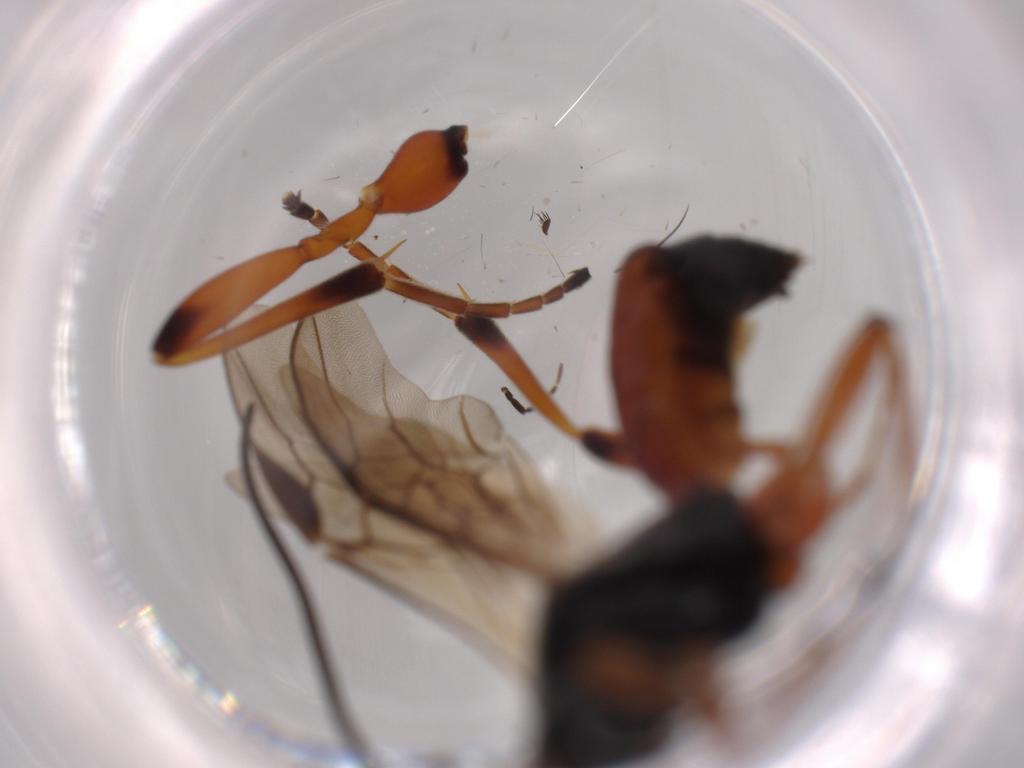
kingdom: Animalia
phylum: Arthropoda
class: Insecta
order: Hymenoptera
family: Braconidae
